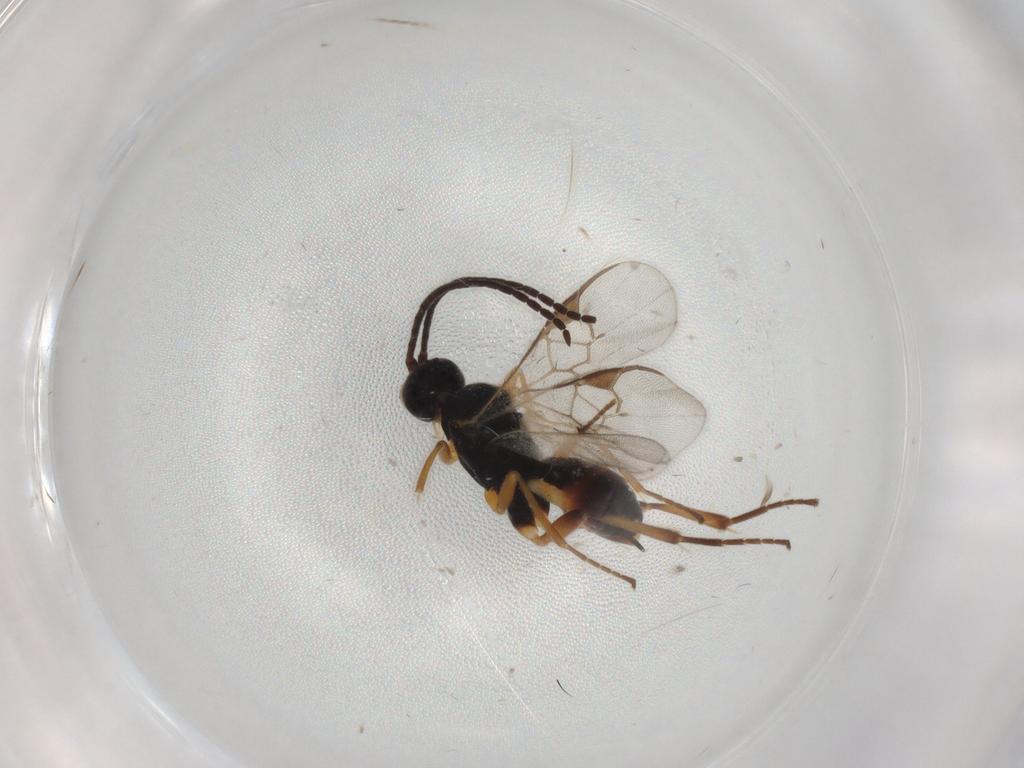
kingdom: Animalia
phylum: Arthropoda
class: Insecta
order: Hymenoptera
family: Braconidae
